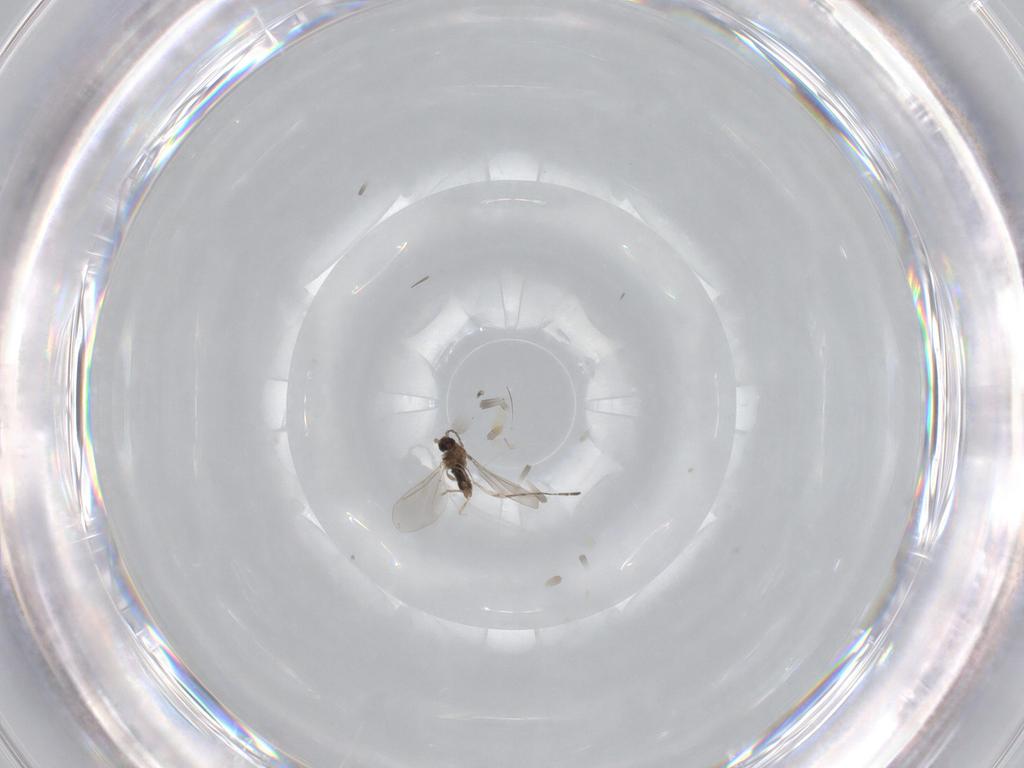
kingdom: Animalia
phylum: Arthropoda
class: Insecta
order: Diptera
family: Cecidomyiidae
